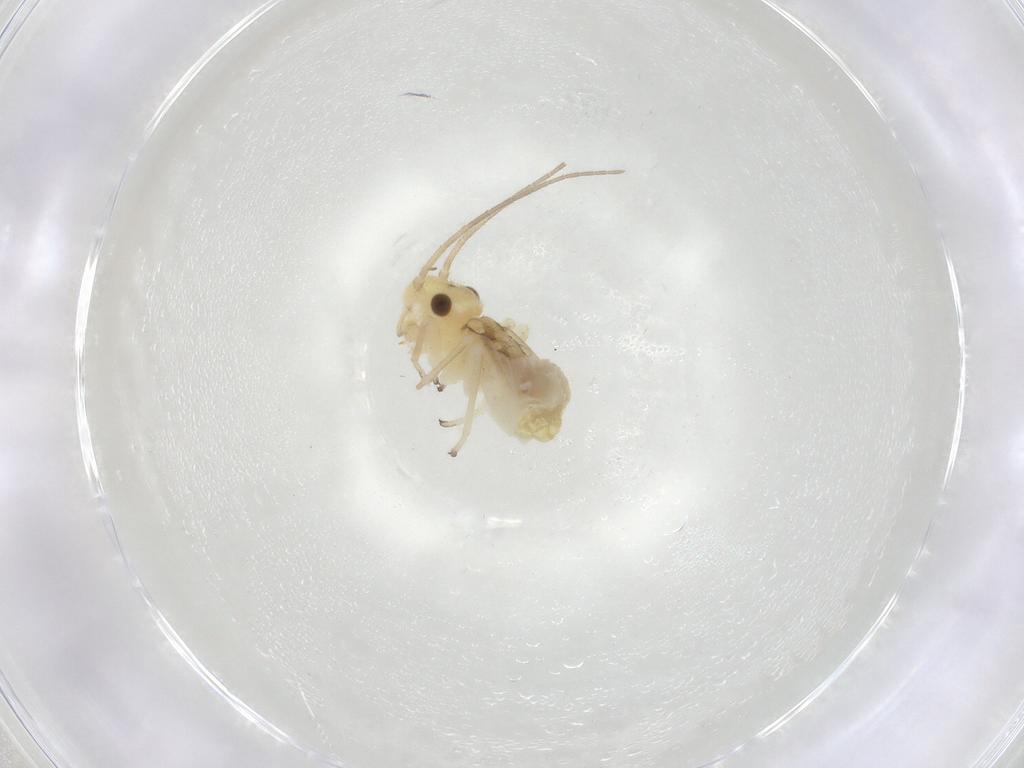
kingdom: Animalia
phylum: Arthropoda
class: Insecta
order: Psocodea
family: Caeciliusidae
